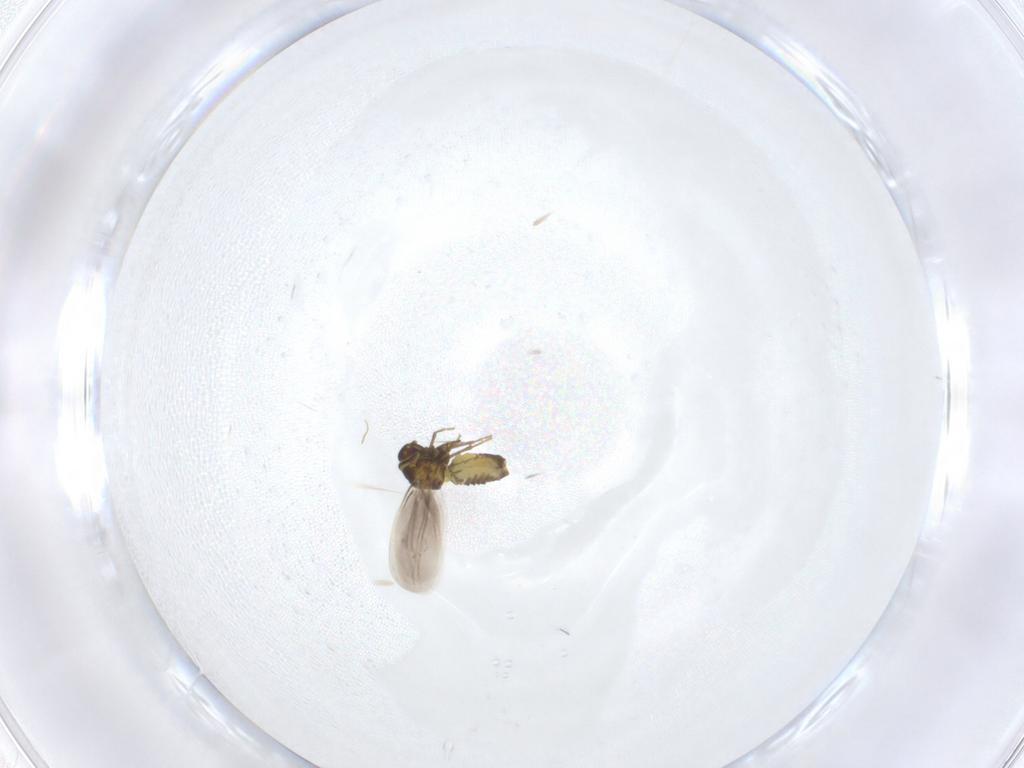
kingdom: Animalia
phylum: Arthropoda
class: Insecta
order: Hemiptera
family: Aleyrodidae
